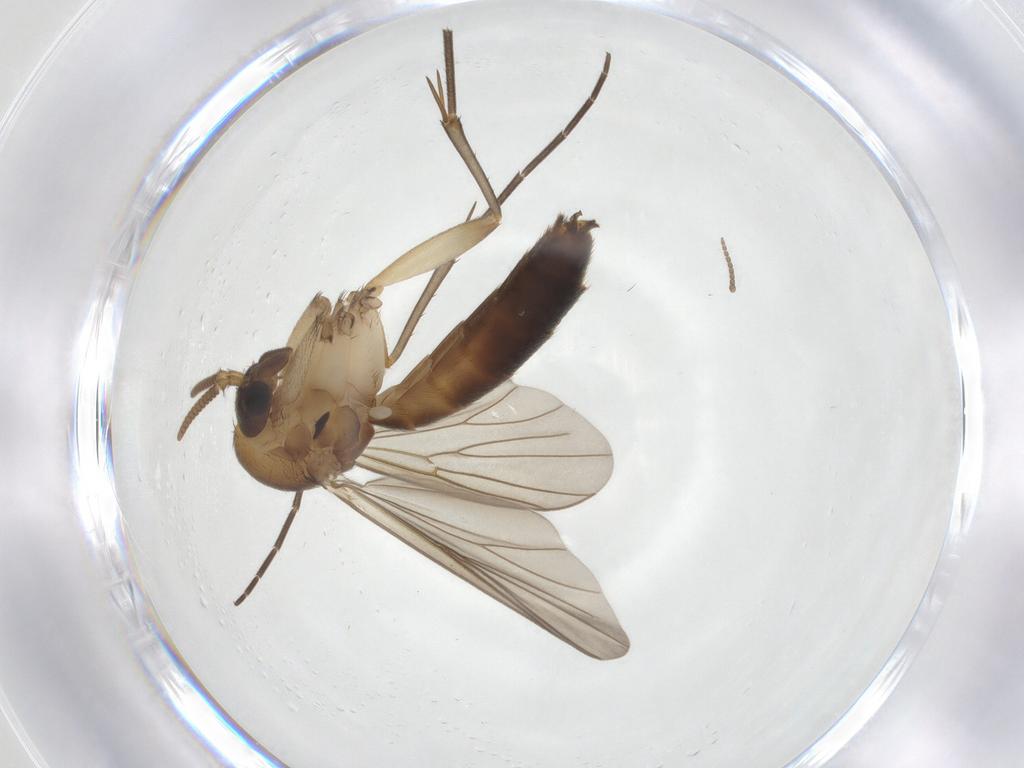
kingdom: Animalia
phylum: Arthropoda
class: Insecta
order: Diptera
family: Mycetophilidae
